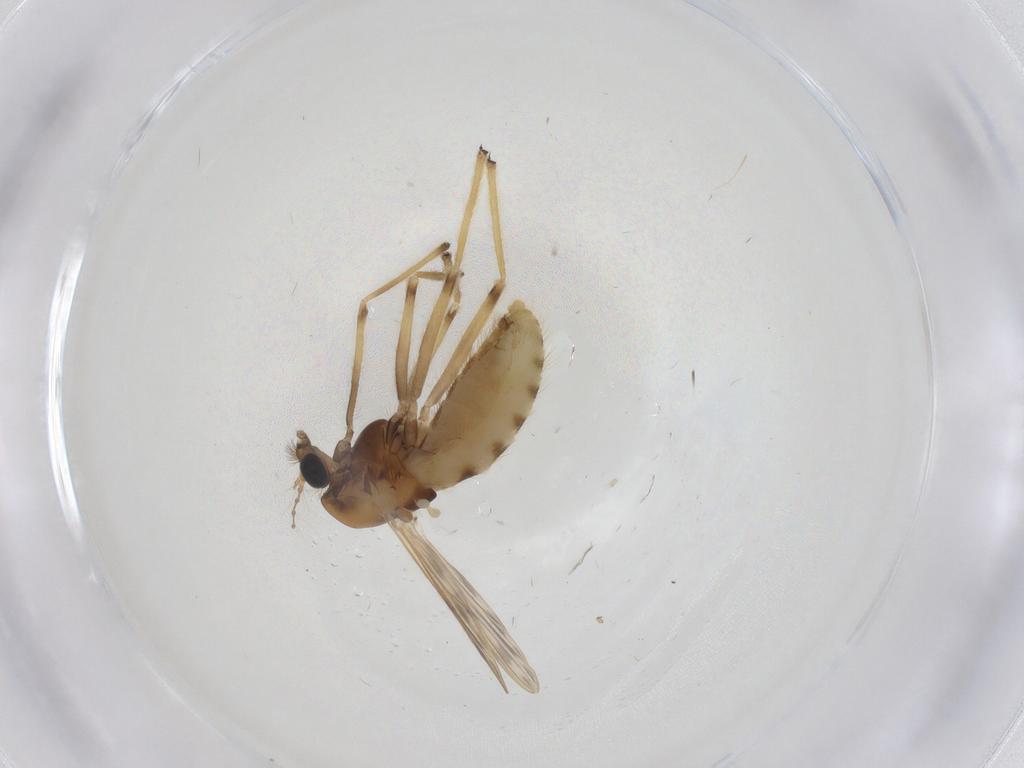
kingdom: Animalia
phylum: Arthropoda
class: Insecta
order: Diptera
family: Chironomidae
